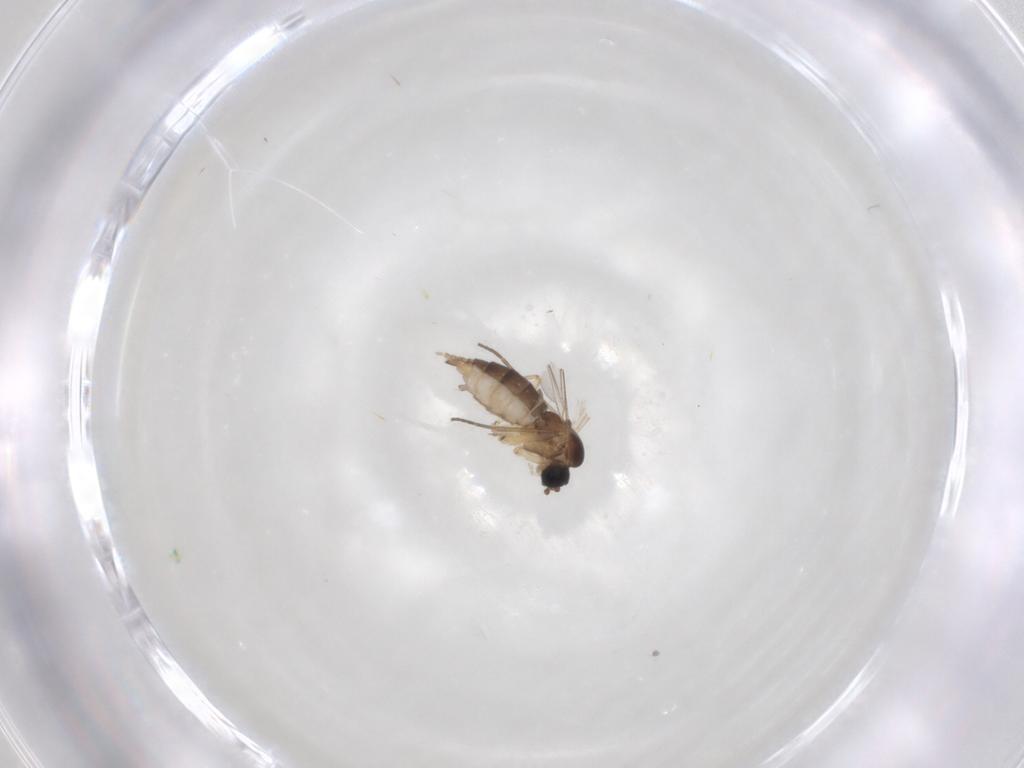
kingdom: Animalia
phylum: Arthropoda
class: Insecta
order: Diptera
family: Sciaridae
